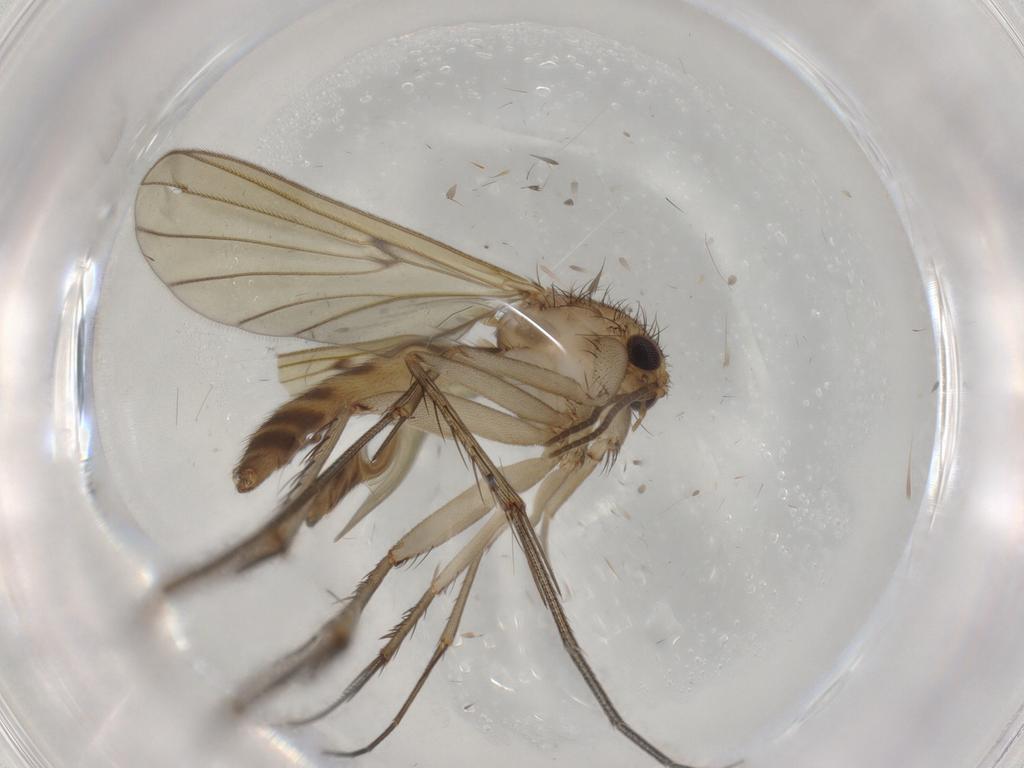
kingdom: Animalia
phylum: Arthropoda
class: Insecta
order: Diptera
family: Mycetophilidae
